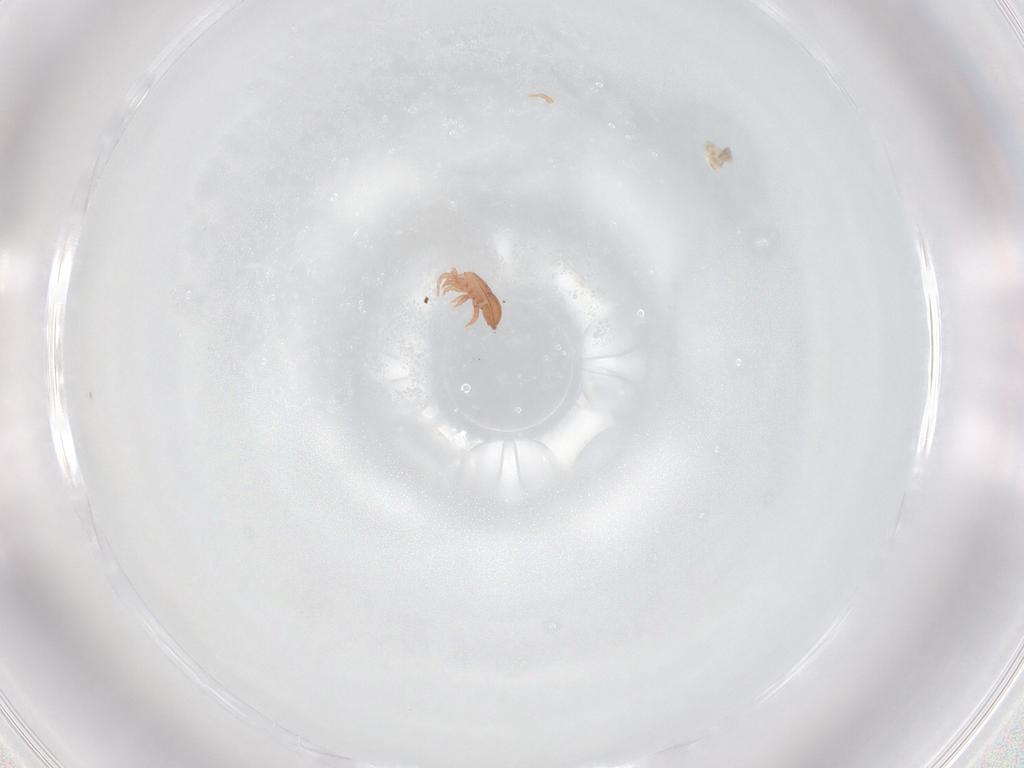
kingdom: Animalia
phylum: Arthropoda
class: Arachnida
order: Mesostigmata
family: Zerconidae
